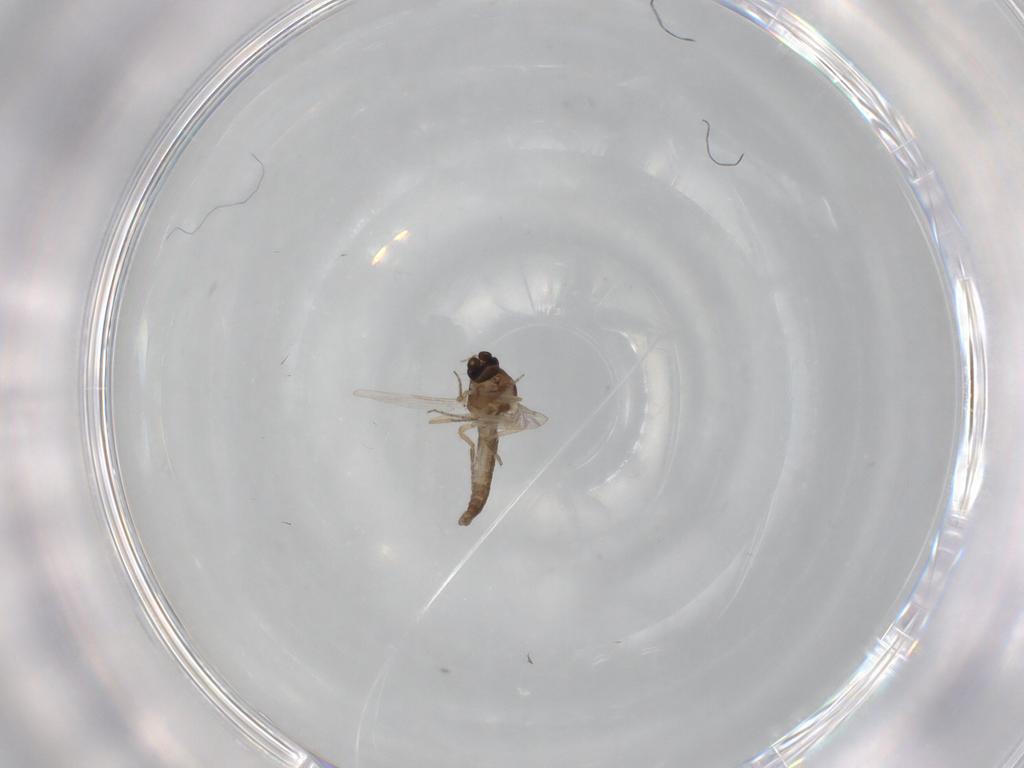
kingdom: Animalia
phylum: Arthropoda
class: Insecta
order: Diptera
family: Ceratopogonidae
